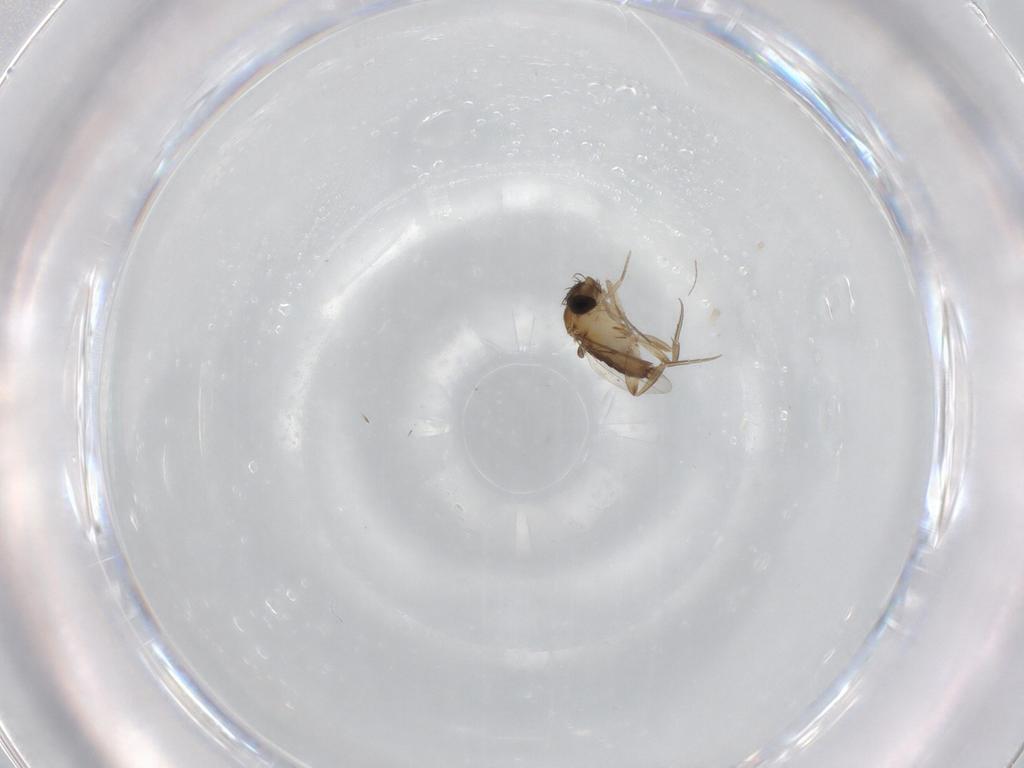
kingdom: Animalia
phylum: Arthropoda
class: Insecta
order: Diptera
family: Phoridae
